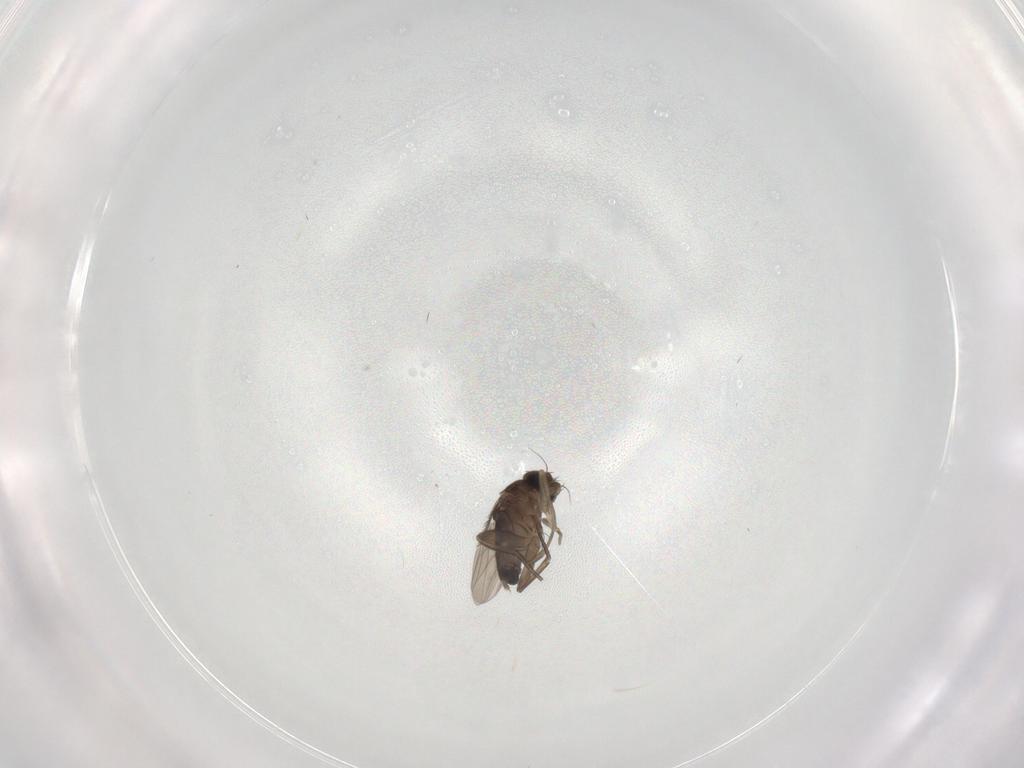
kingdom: Animalia
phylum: Arthropoda
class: Insecta
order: Diptera
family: Phoridae
